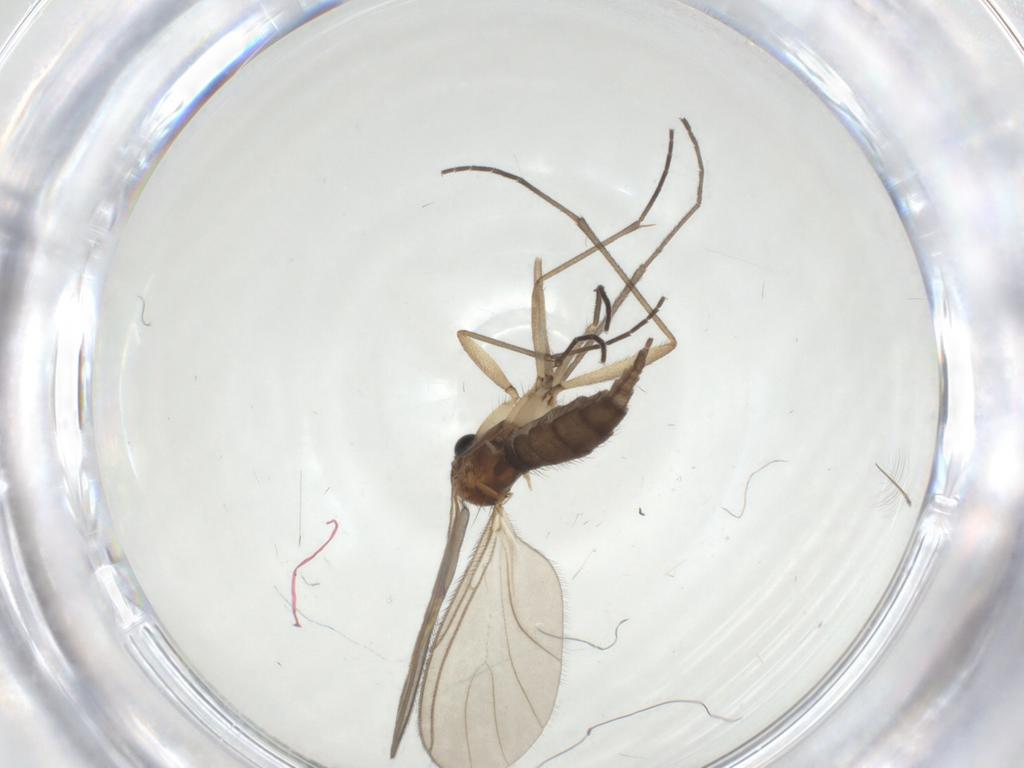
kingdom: Animalia
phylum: Arthropoda
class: Insecta
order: Diptera
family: Sciaridae
